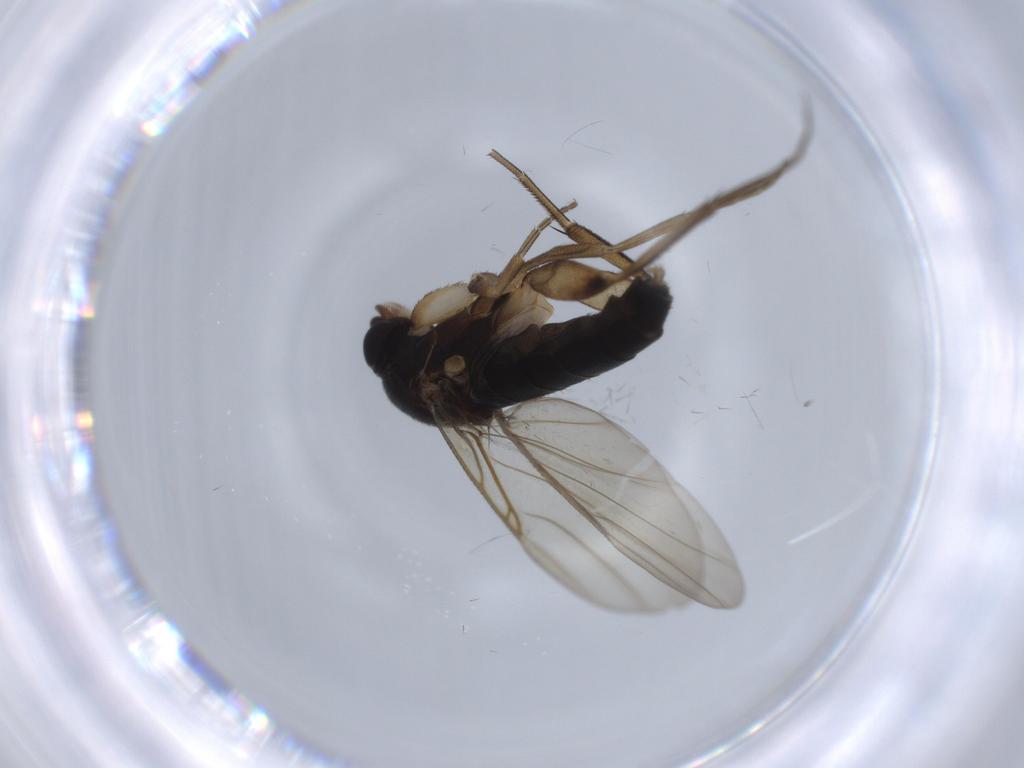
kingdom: Animalia
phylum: Arthropoda
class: Insecta
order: Diptera
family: Phoridae
